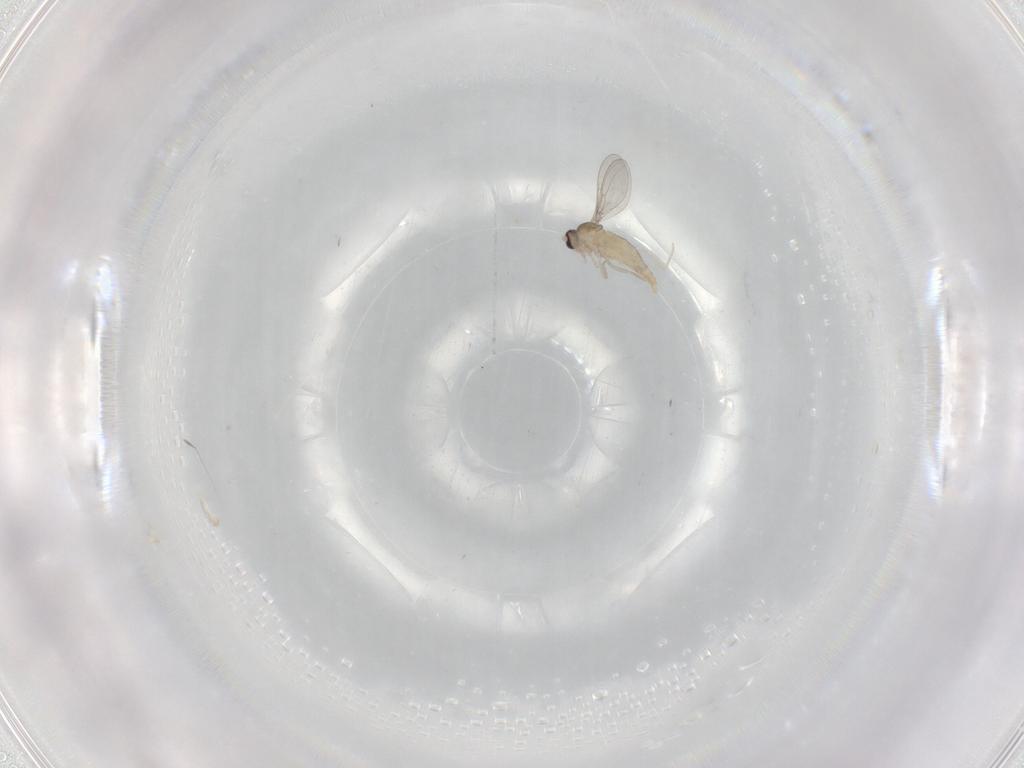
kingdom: Animalia
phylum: Arthropoda
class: Insecta
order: Diptera
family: Cecidomyiidae
